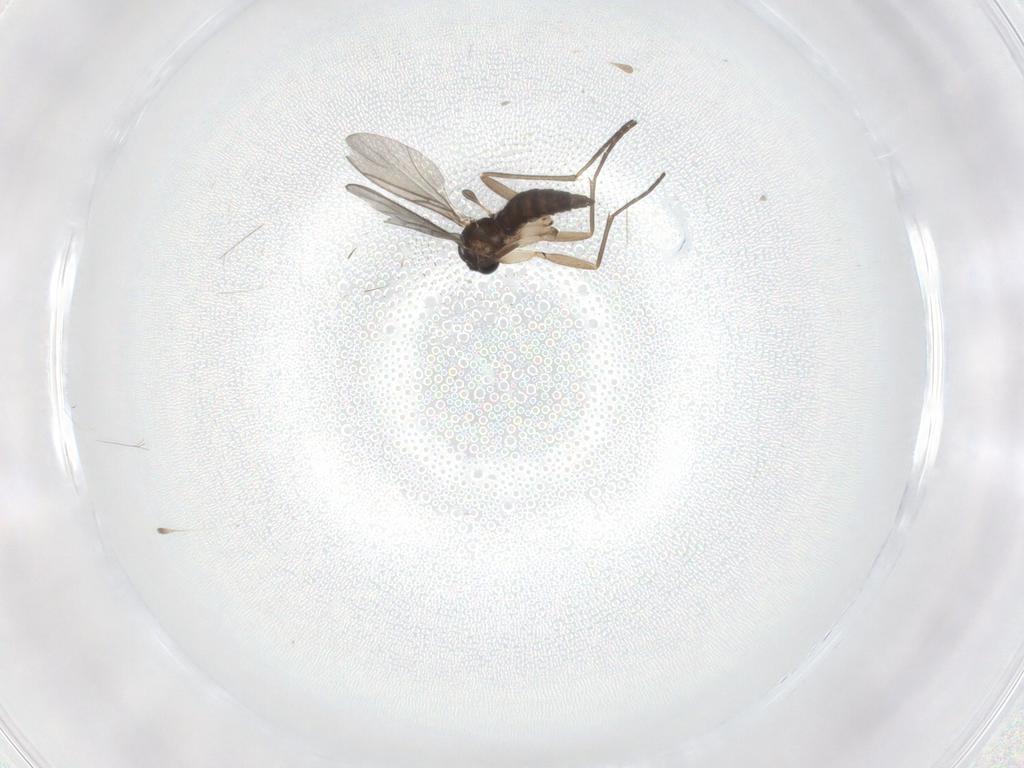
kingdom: Animalia
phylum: Arthropoda
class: Insecta
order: Diptera
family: Sciaridae
